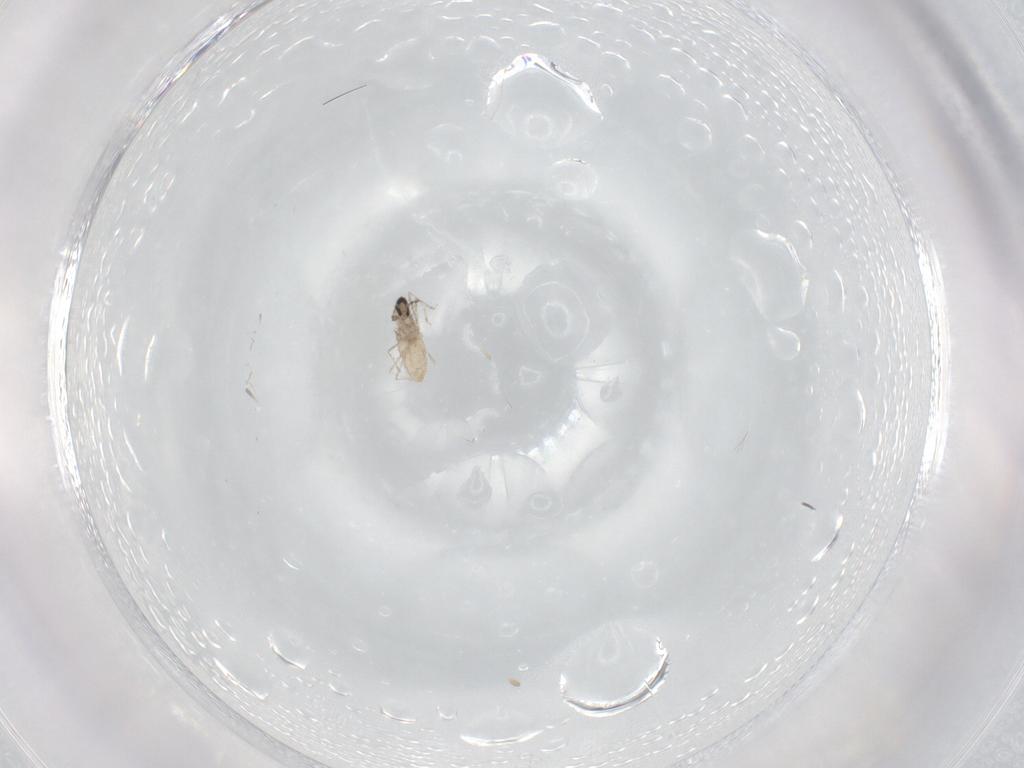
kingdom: Animalia
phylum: Arthropoda
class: Insecta
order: Diptera
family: Cecidomyiidae
